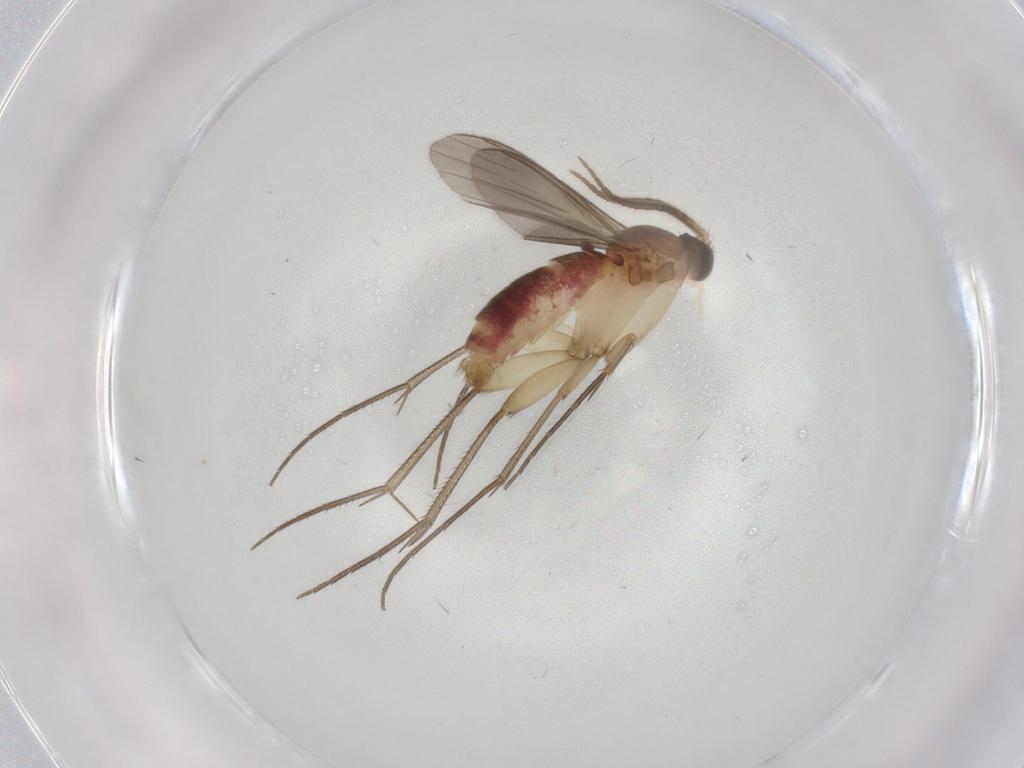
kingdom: Animalia
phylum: Arthropoda
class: Insecta
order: Diptera
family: Mycetophilidae
